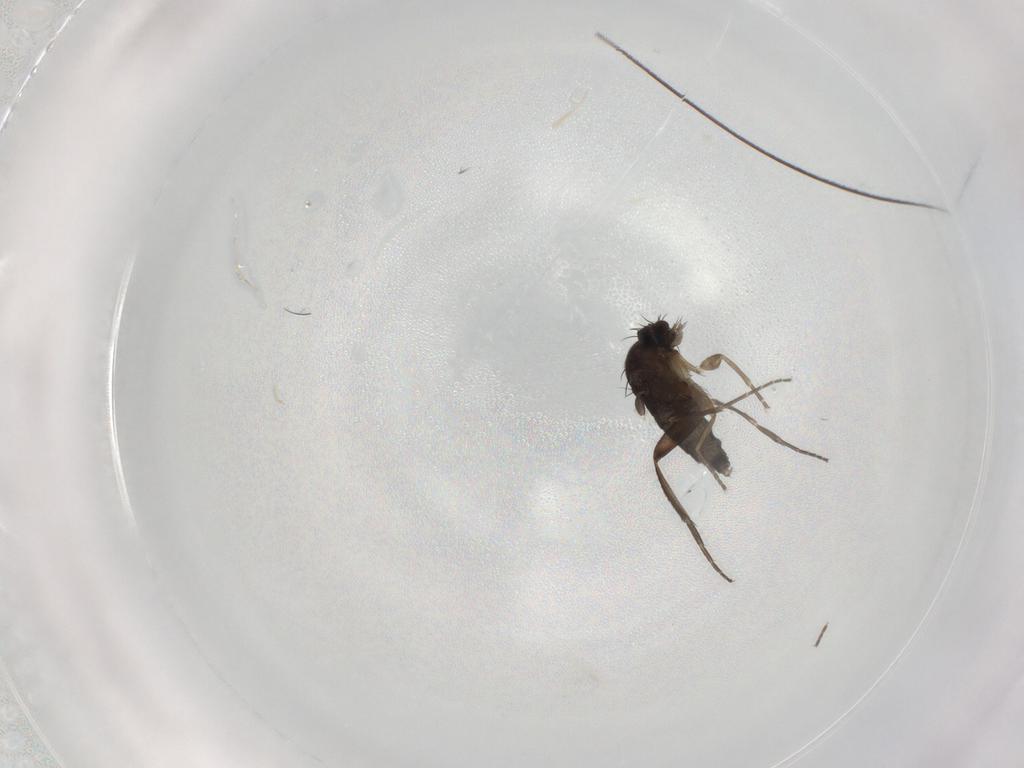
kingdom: Animalia
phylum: Arthropoda
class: Insecta
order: Diptera
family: Phoridae
